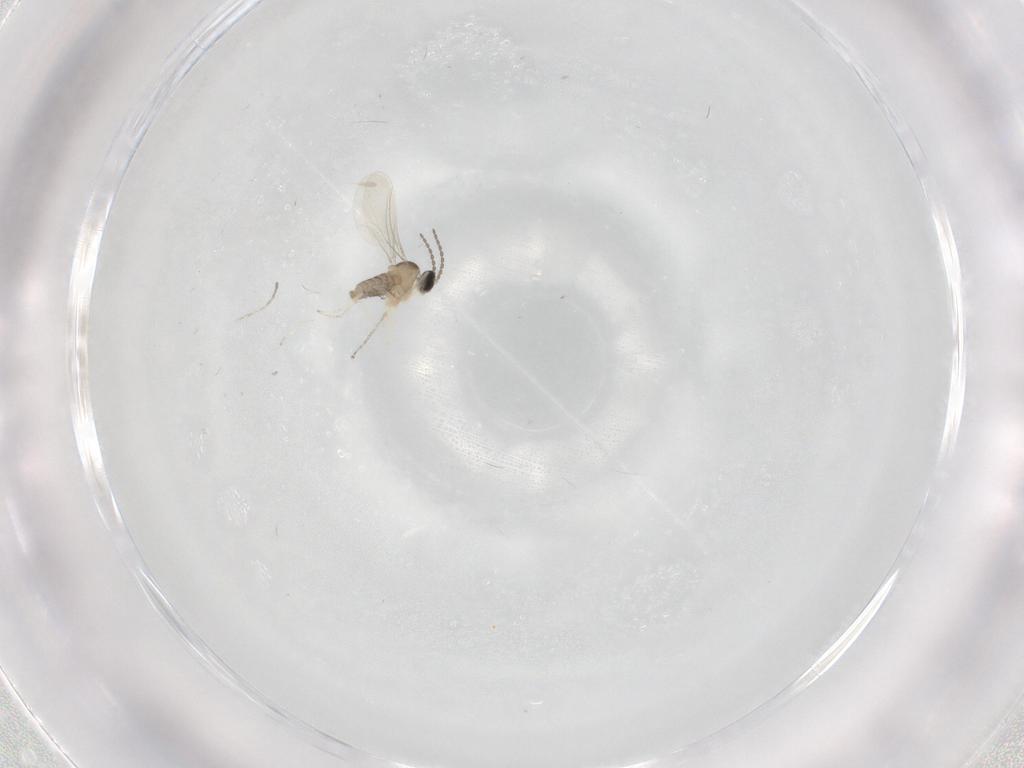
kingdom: Animalia
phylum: Arthropoda
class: Insecta
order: Diptera
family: Cecidomyiidae
